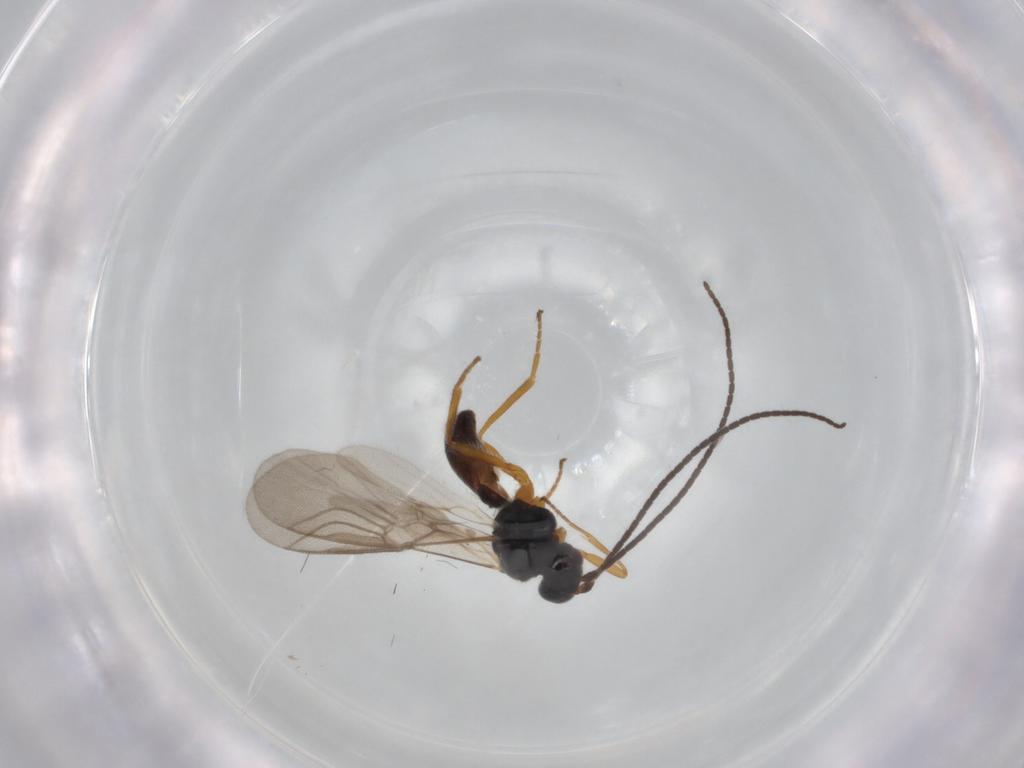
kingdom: Animalia
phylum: Arthropoda
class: Insecta
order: Hymenoptera
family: Braconidae
